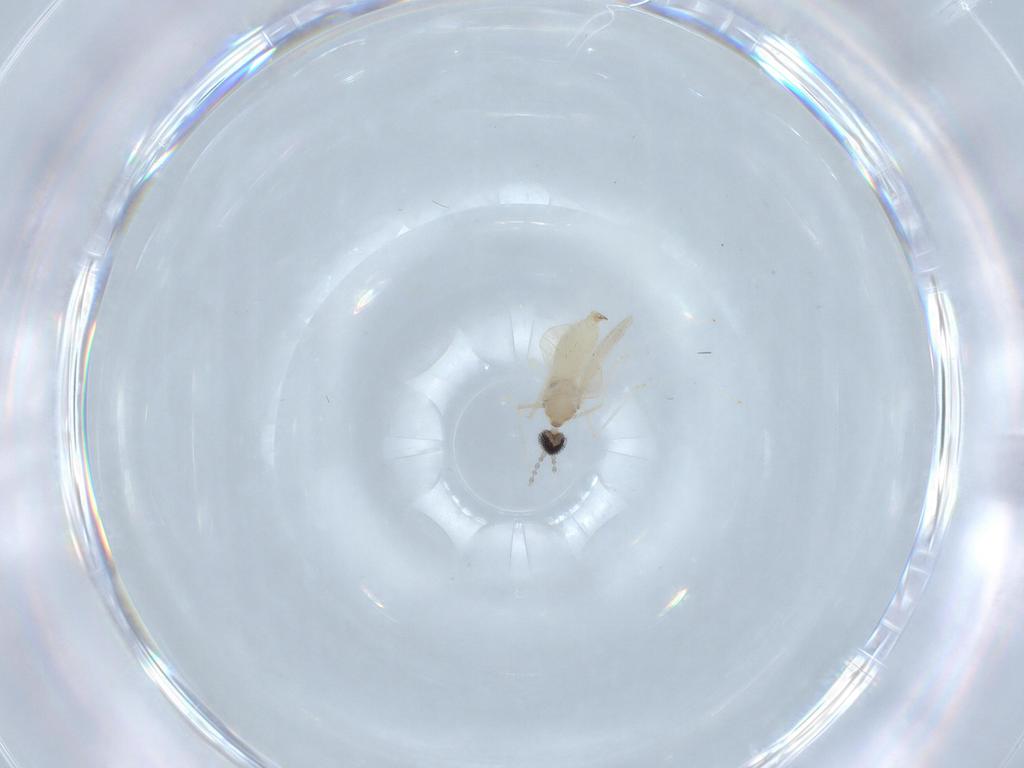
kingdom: Animalia
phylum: Arthropoda
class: Insecta
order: Diptera
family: Cecidomyiidae
